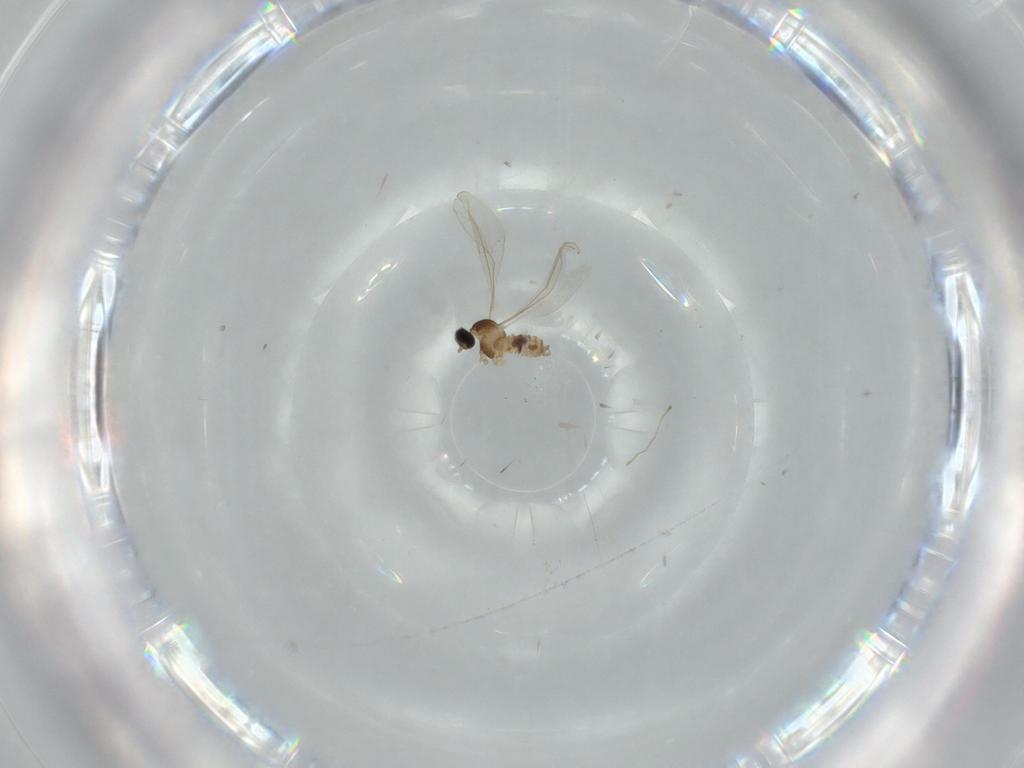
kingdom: Animalia
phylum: Arthropoda
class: Insecta
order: Diptera
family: Cecidomyiidae
